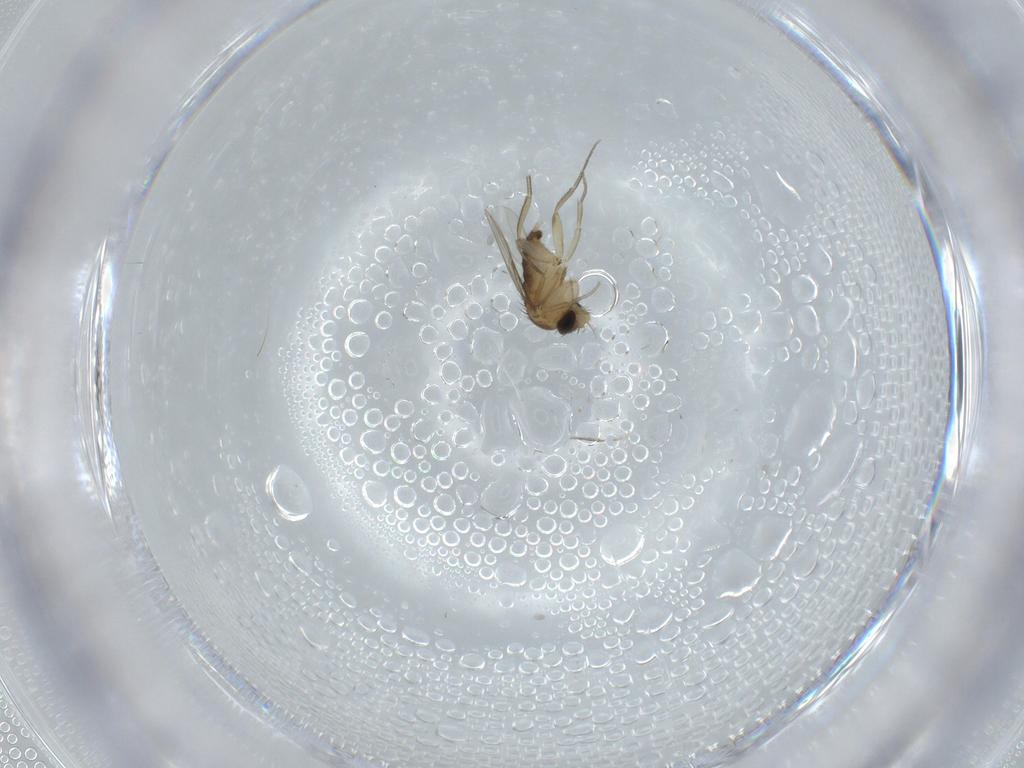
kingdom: Animalia
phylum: Arthropoda
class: Insecta
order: Diptera
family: Phoridae
